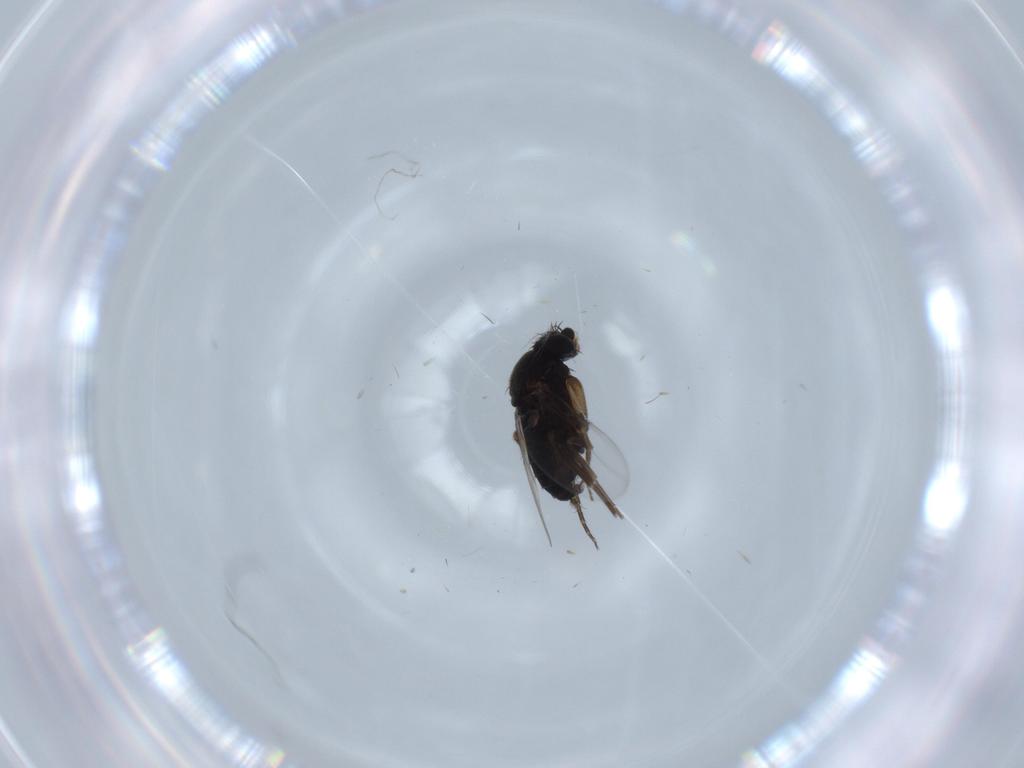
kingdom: Animalia
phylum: Arthropoda
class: Insecta
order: Diptera
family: Phoridae
